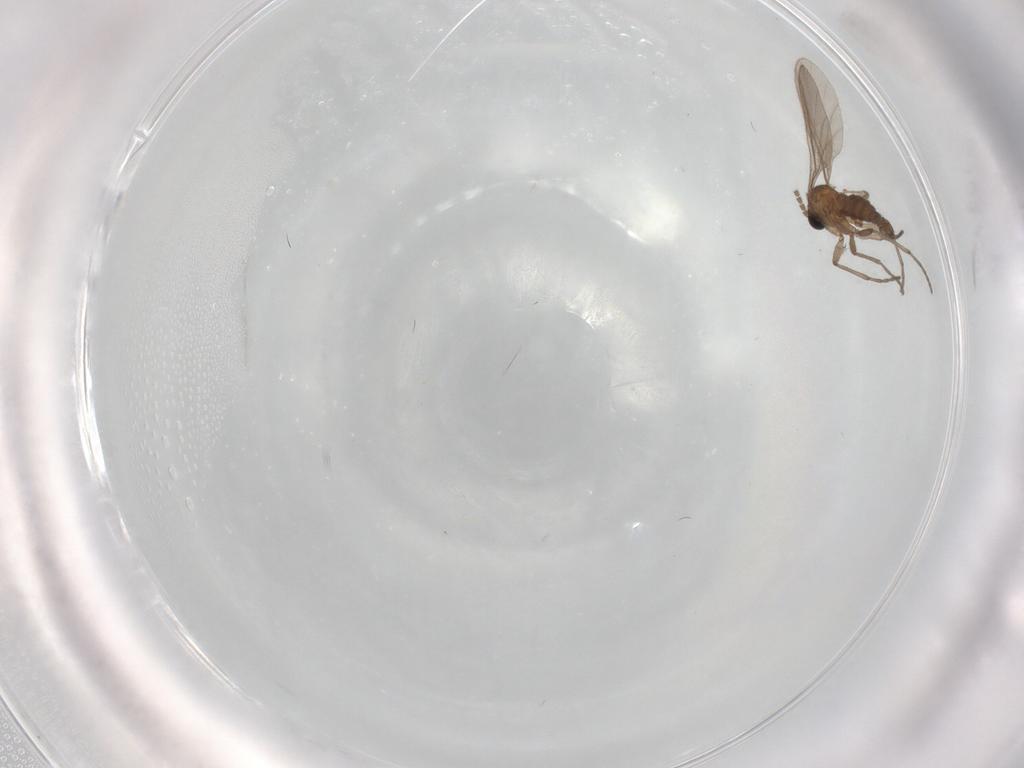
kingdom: Animalia
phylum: Arthropoda
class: Insecta
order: Diptera
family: Sciaridae
